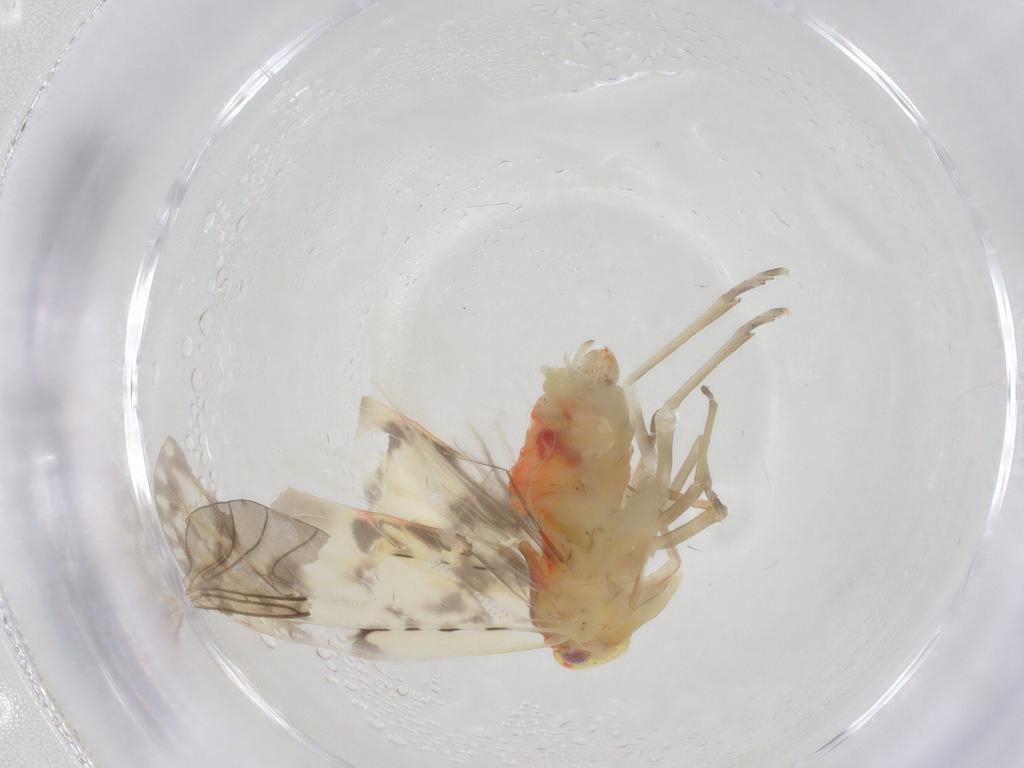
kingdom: Animalia
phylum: Arthropoda
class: Insecta
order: Hemiptera
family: Derbidae
